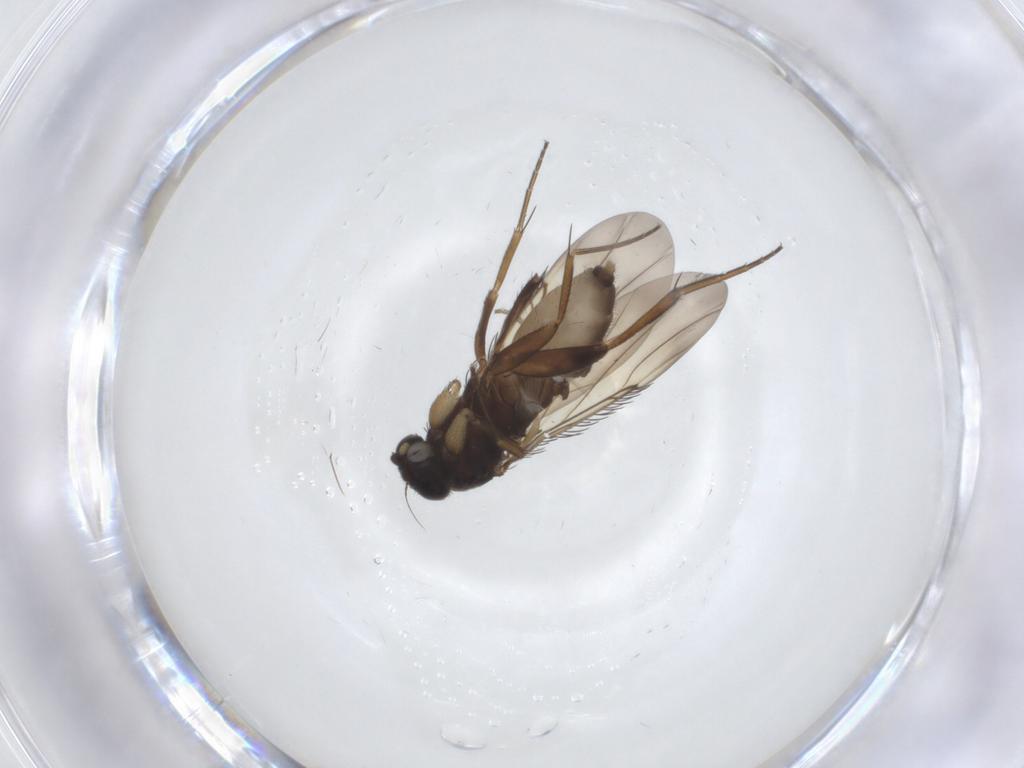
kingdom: Animalia
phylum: Arthropoda
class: Insecta
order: Diptera
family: Phoridae
